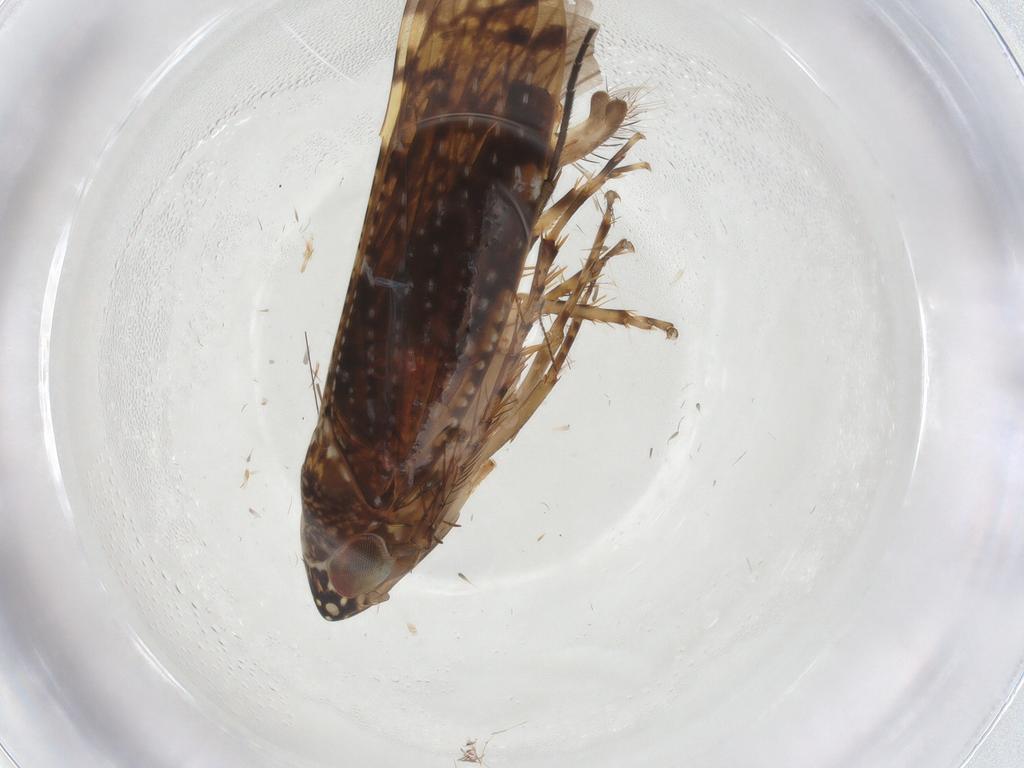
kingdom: Animalia
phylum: Arthropoda
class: Insecta
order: Hemiptera
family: Cicadellidae
